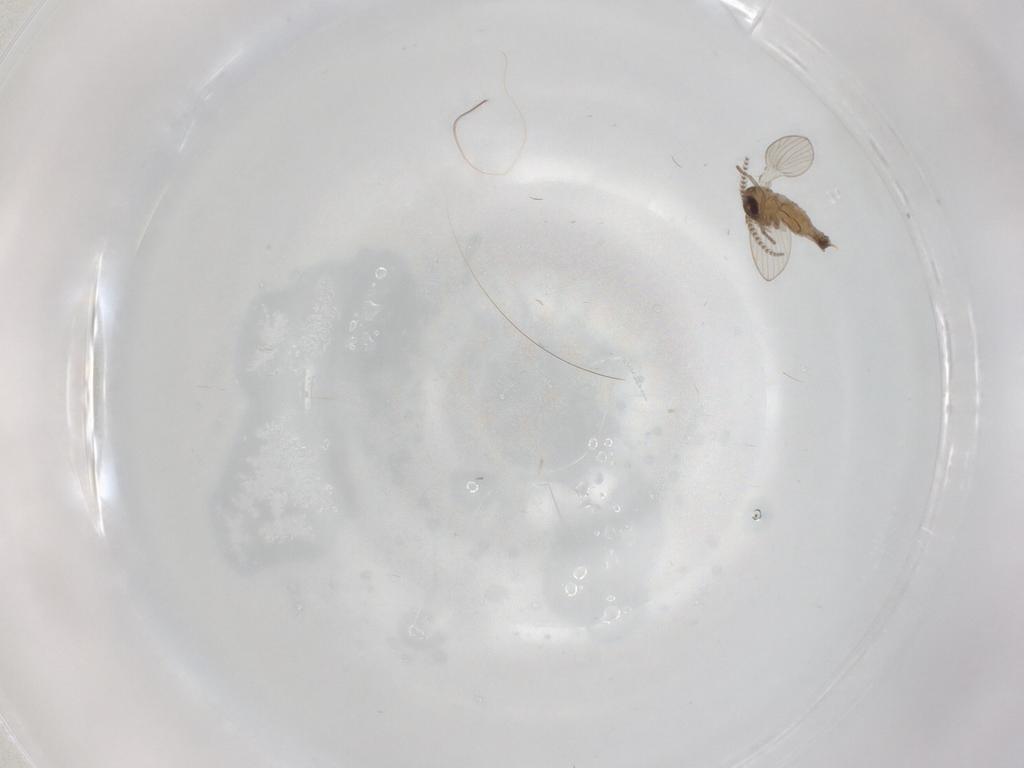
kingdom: Animalia
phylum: Arthropoda
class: Insecta
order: Diptera
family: Psychodidae
